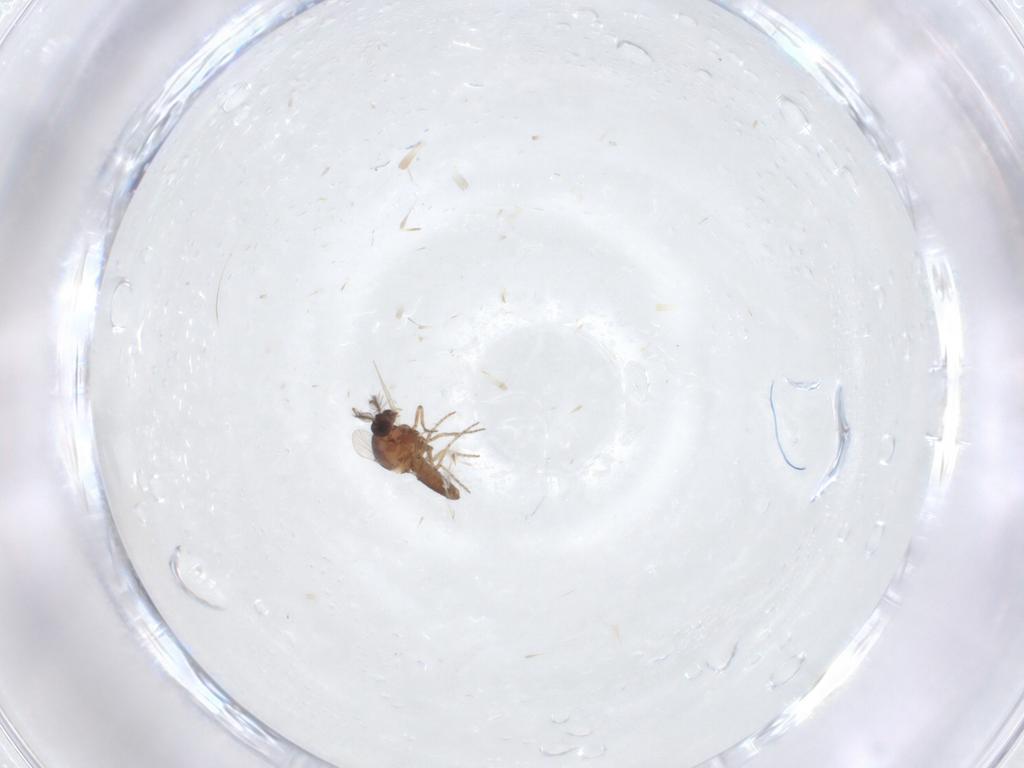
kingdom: Animalia
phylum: Arthropoda
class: Insecta
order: Diptera
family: Ceratopogonidae
